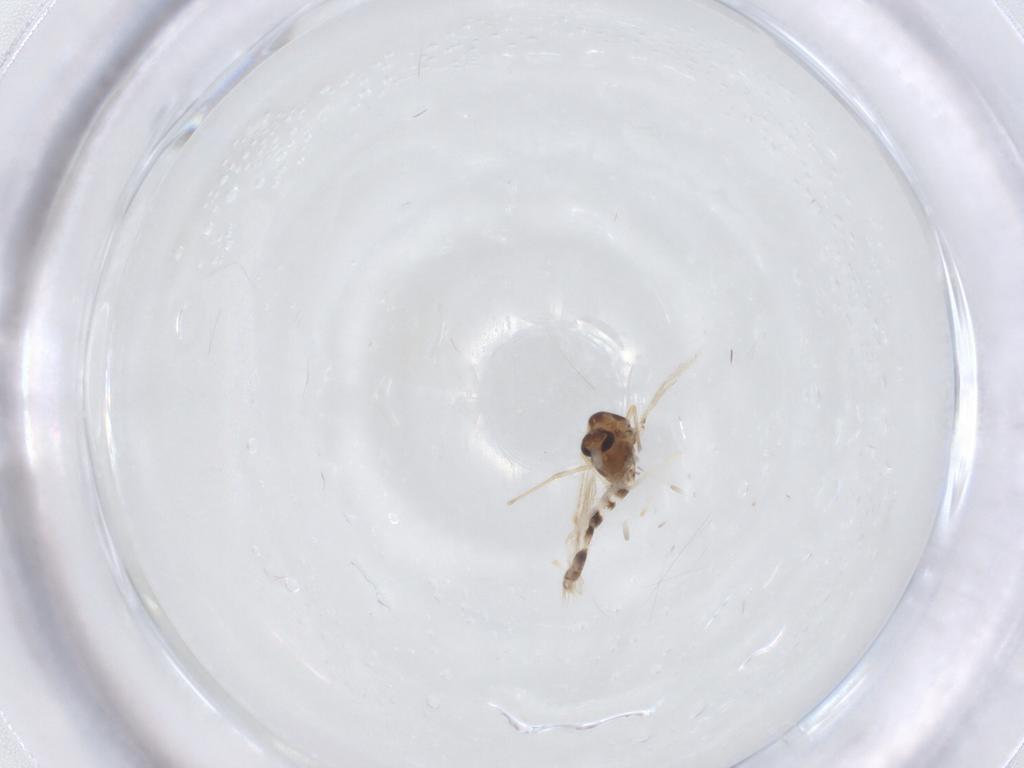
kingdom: Animalia
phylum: Arthropoda
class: Insecta
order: Diptera
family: Chironomidae
